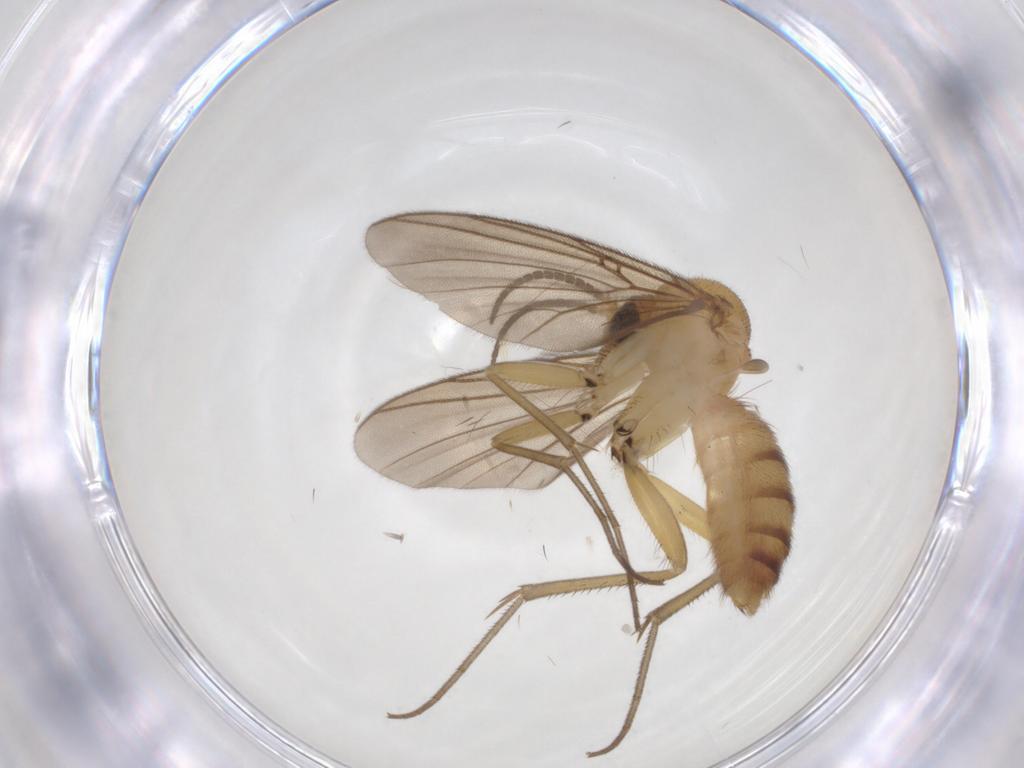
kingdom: Animalia
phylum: Arthropoda
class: Insecta
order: Diptera
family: Mycetophilidae
